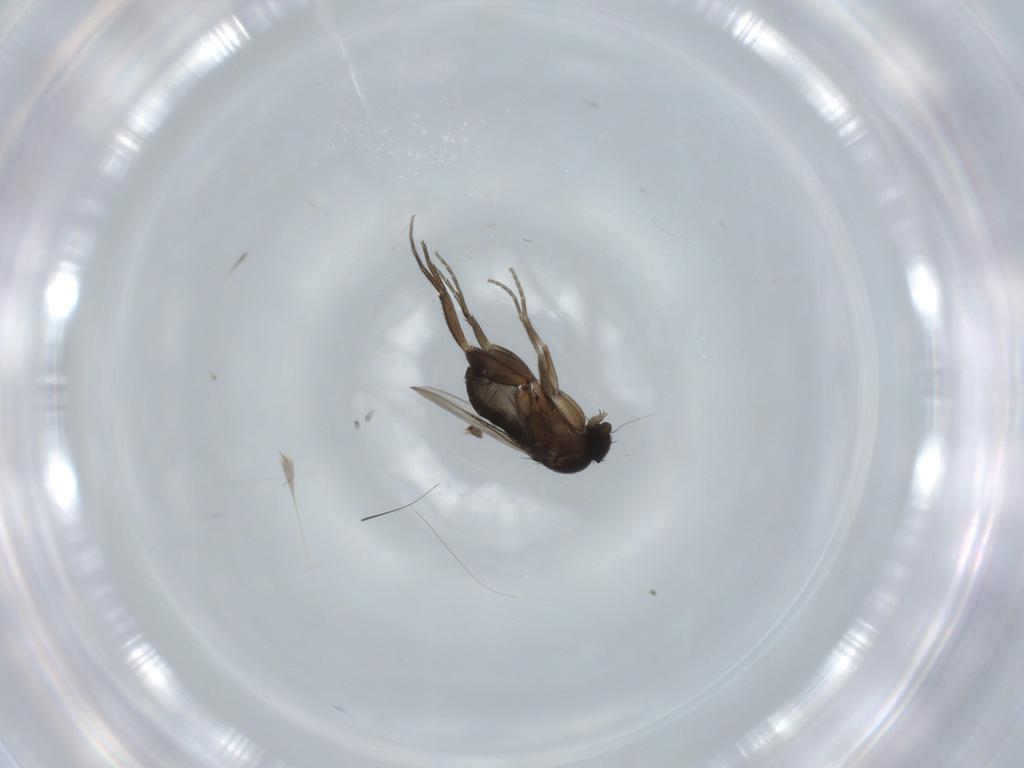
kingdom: Animalia
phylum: Arthropoda
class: Insecta
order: Diptera
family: Phoridae
